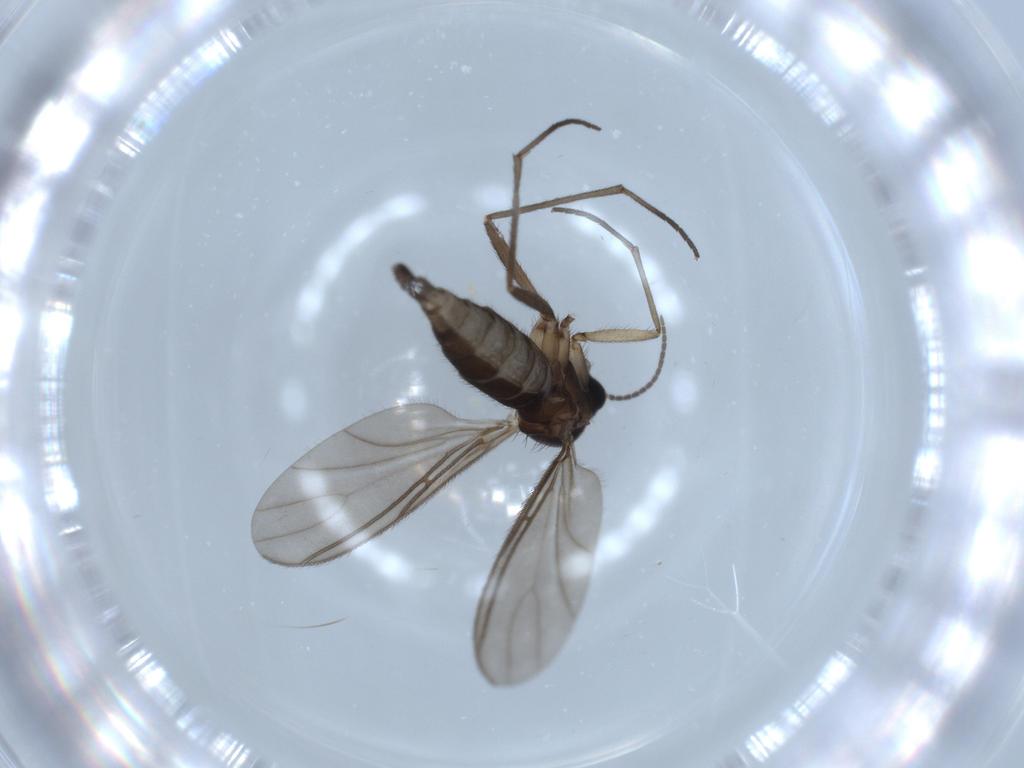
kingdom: Animalia
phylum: Arthropoda
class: Insecta
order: Diptera
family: Sciaridae
